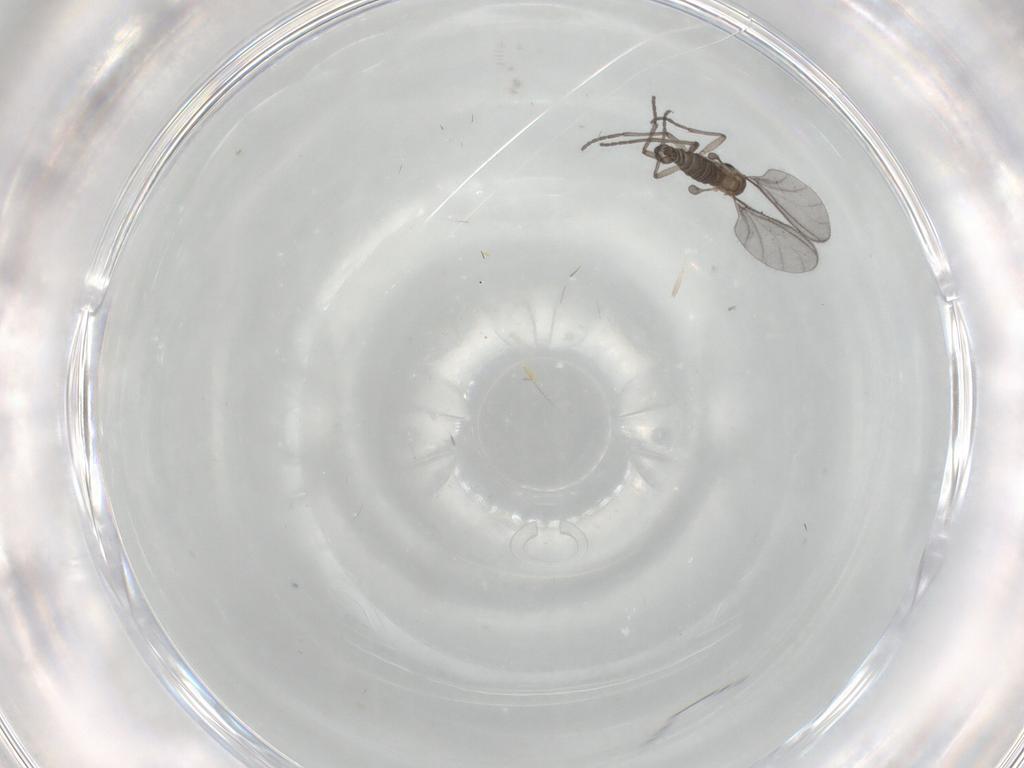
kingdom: Animalia
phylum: Arthropoda
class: Insecta
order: Diptera
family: Sciaridae
